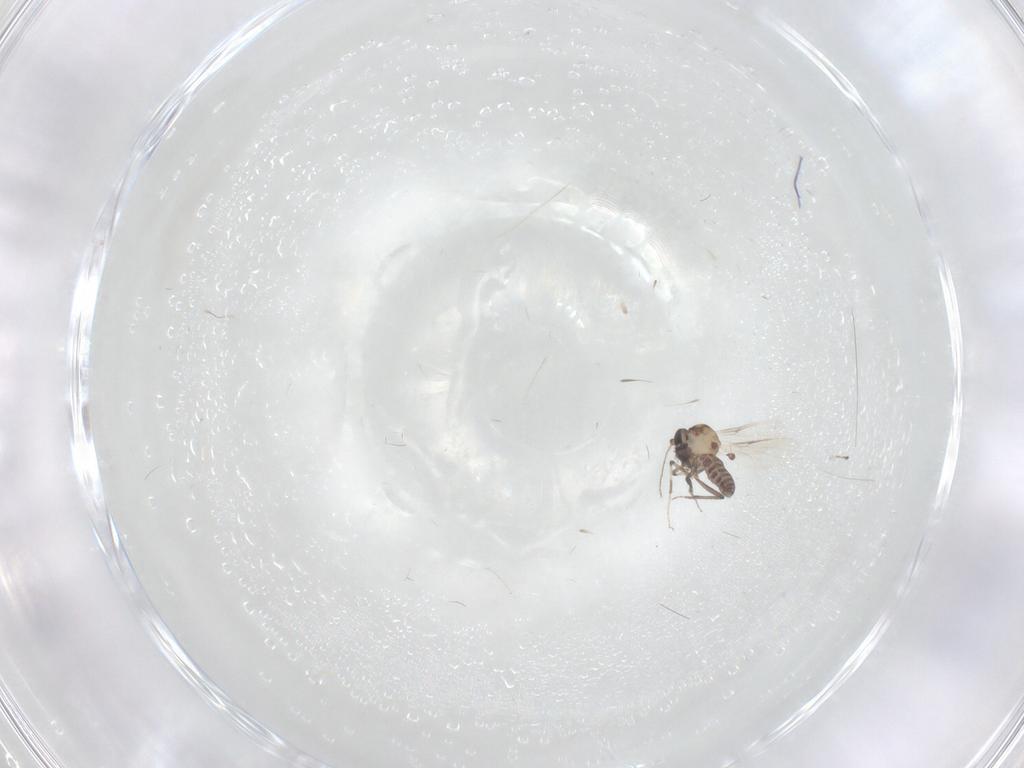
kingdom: Animalia
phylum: Arthropoda
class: Insecta
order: Diptera
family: Ceratopogonidae
